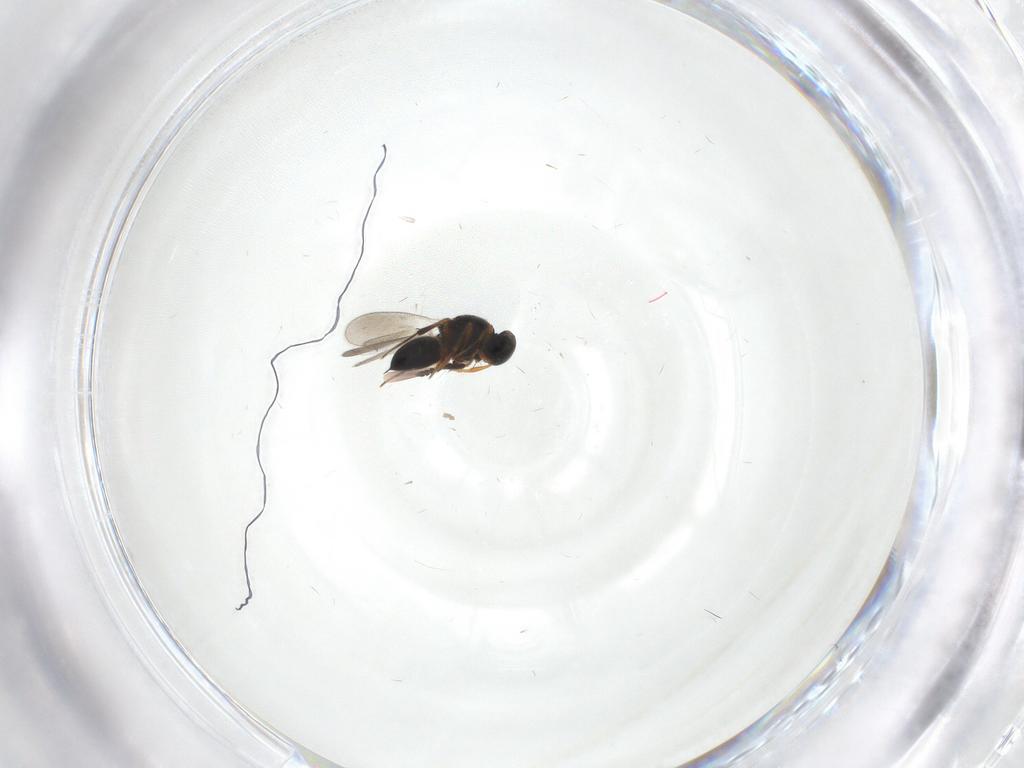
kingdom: Animalia
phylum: Arthropoda
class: Insecta
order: Hymenoptera
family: Platygastridae
